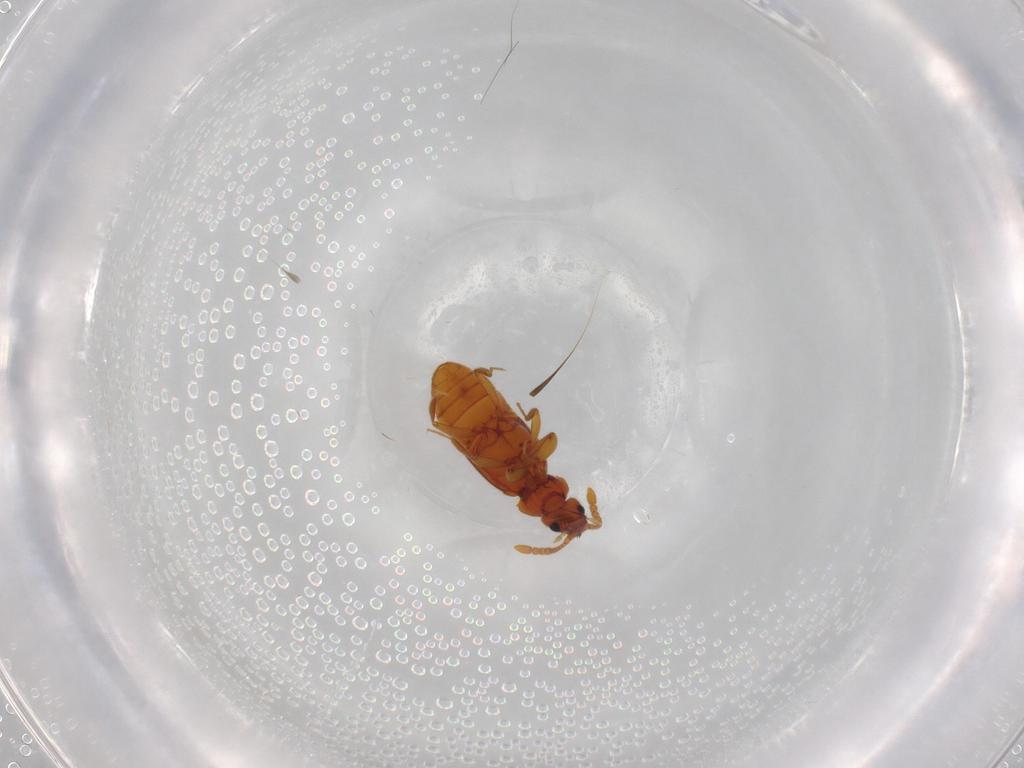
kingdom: Animalia
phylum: Arthropoda
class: Insecta
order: Coleoptera
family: Staphylinidae
